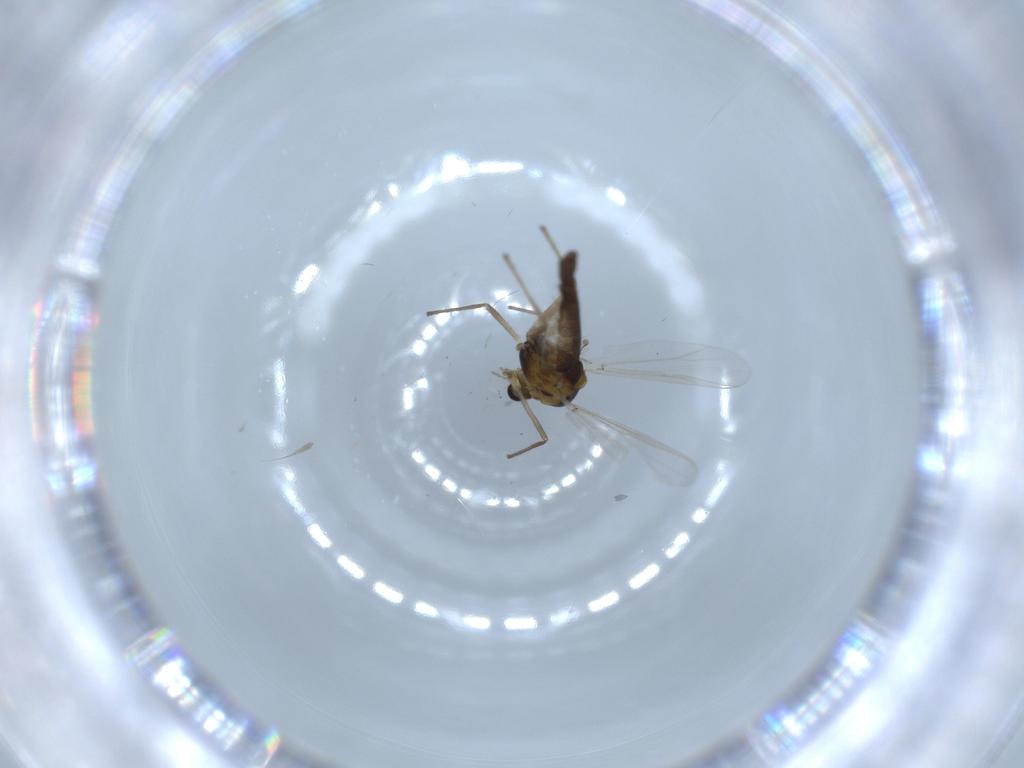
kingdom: Animalia
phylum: Arthropoda
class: Insecta
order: Diptera
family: Chironomidae
